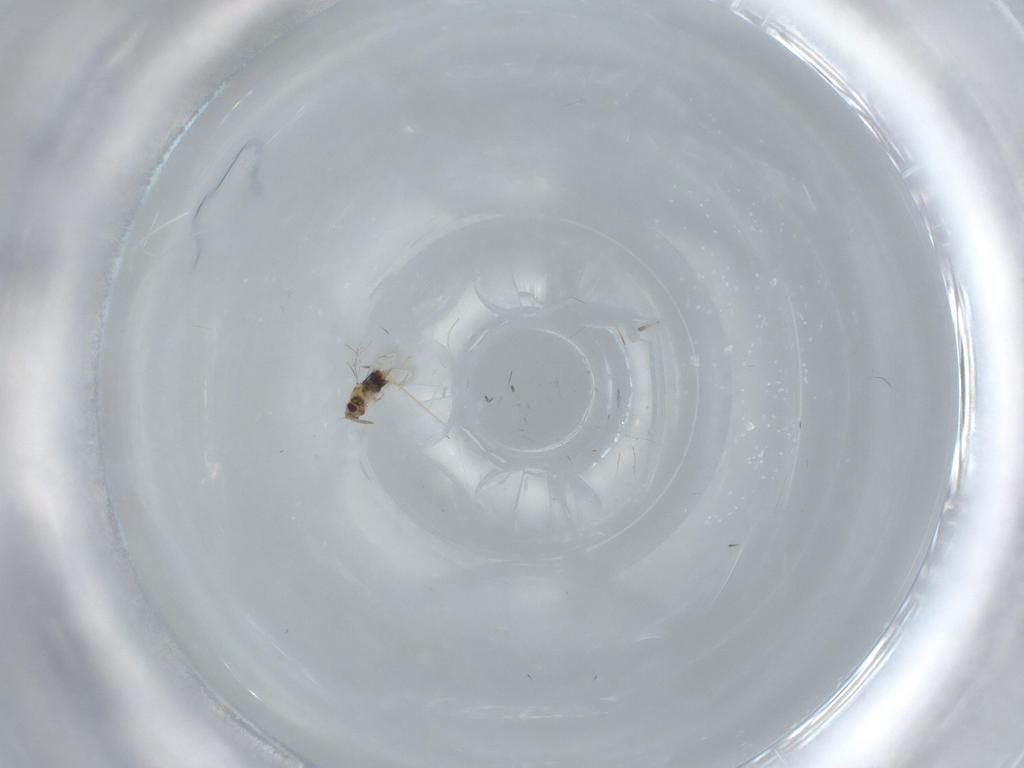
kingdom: Animalia
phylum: Arthropoda
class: Insecta
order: Hymenoptera
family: Aphelinidae
